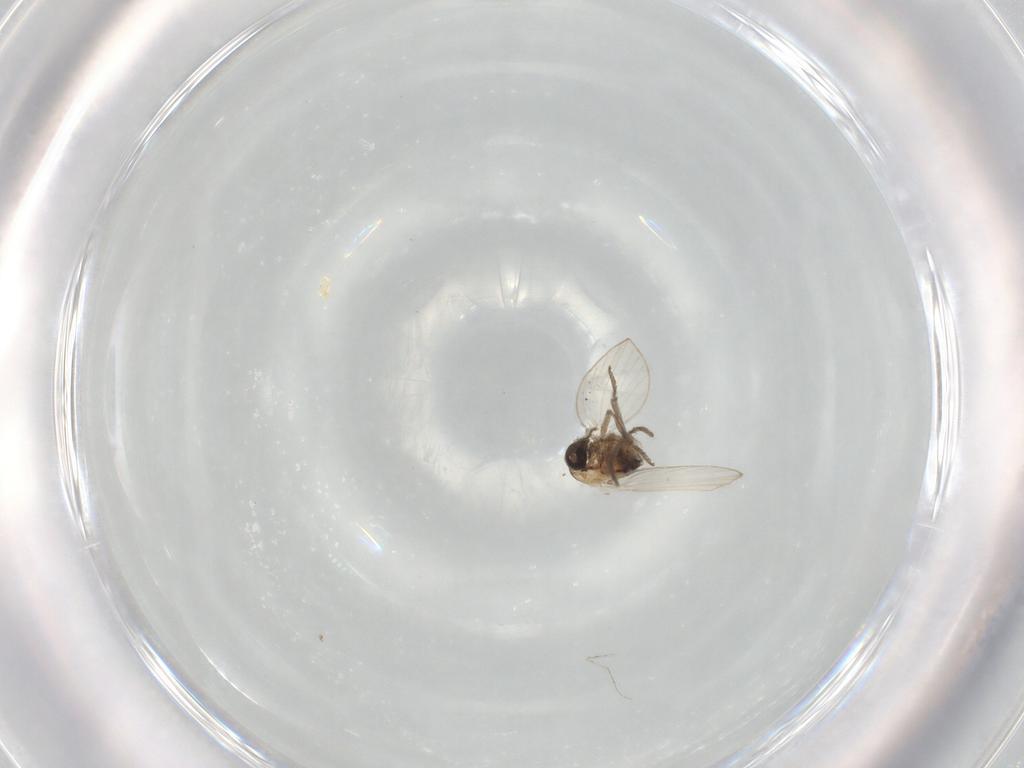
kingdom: Animalia
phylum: Arthropoda
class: Insecta
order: Diptera
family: Psychodidae
